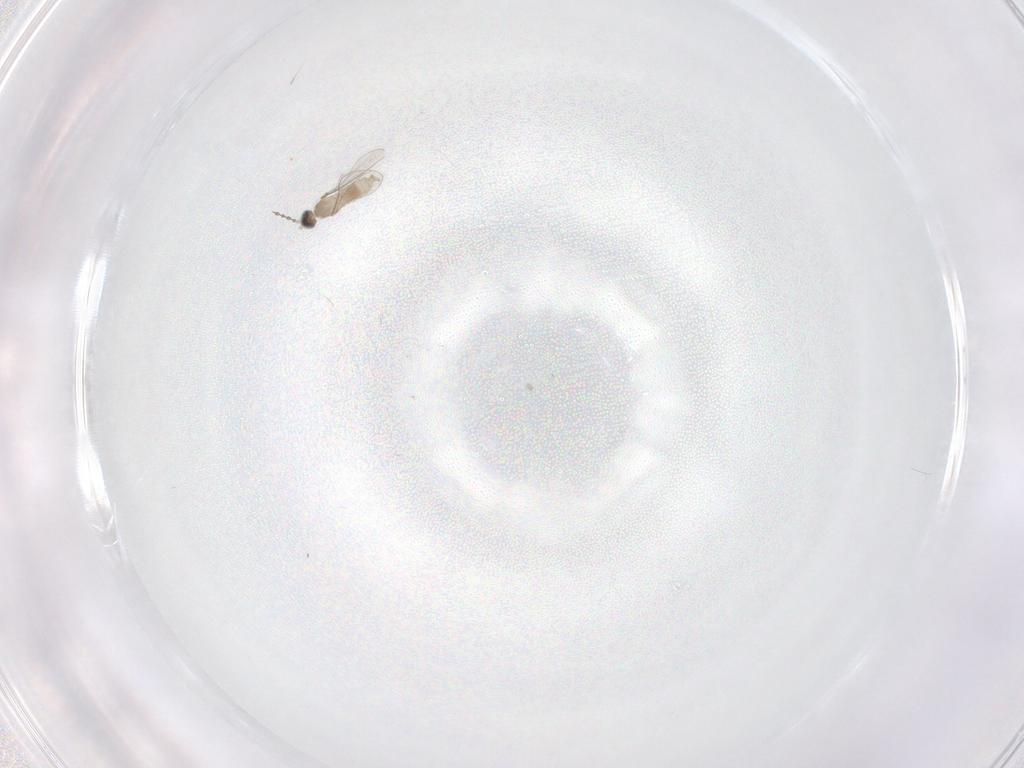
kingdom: Animalia
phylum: Arthropoda
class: Insecta
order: Diptera
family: Cecidomyiidae
